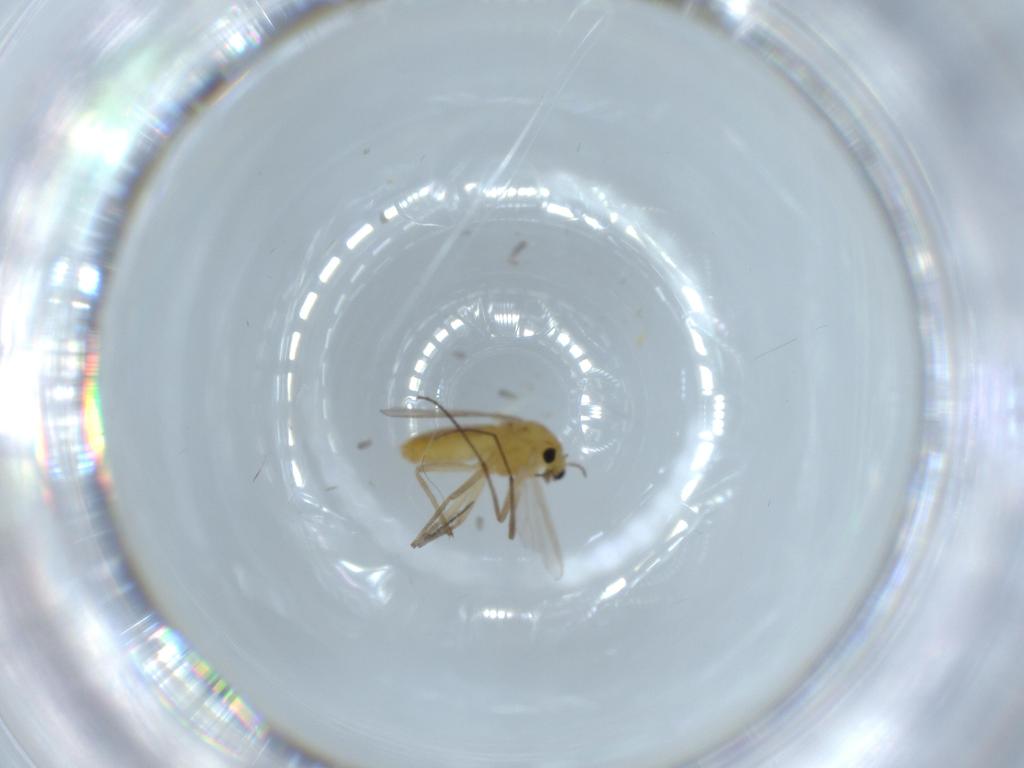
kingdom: Animalia
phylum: Arthropoda
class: Insecta
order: Diptera
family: Chironomidae
